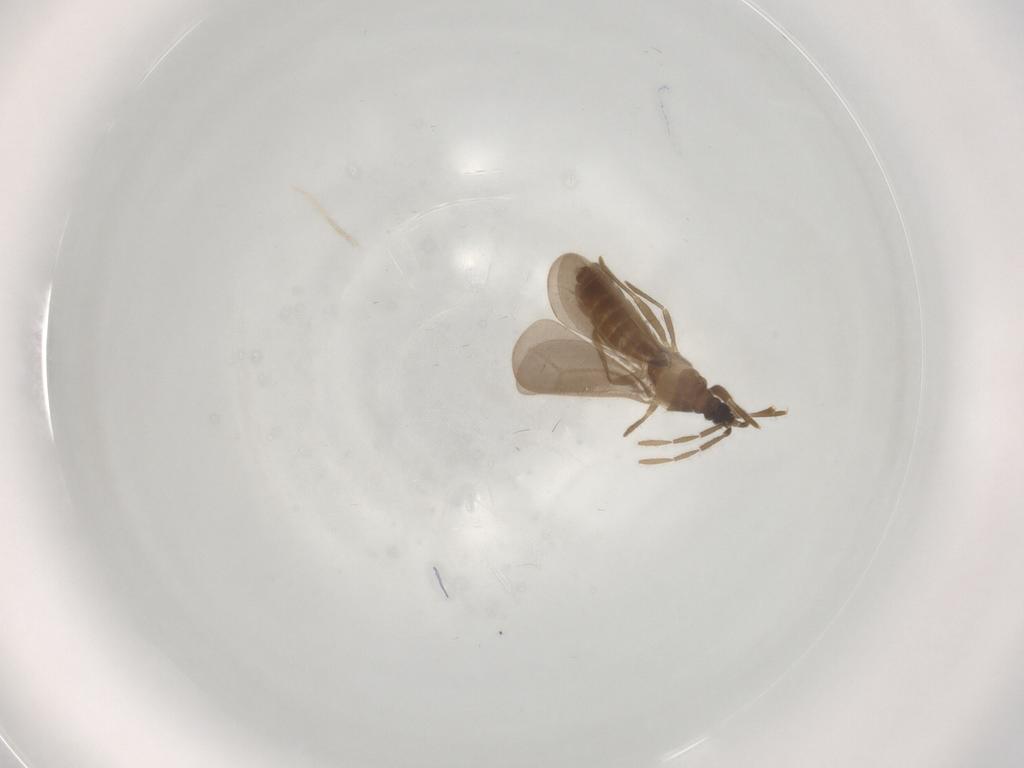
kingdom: Animalia
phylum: Arthropoda
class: Insecta
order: Hemiptera
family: Enicocephalidae
